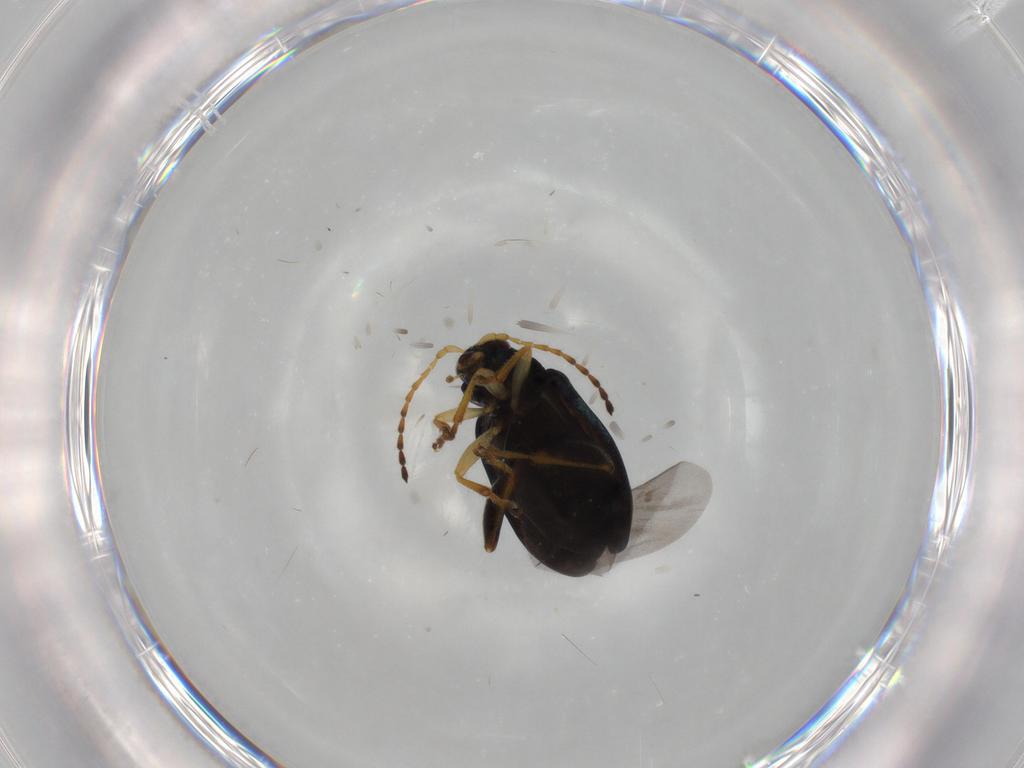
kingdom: Animalia
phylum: Arthropoda
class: Insecta
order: Coleoptera
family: Chrysomelidae
